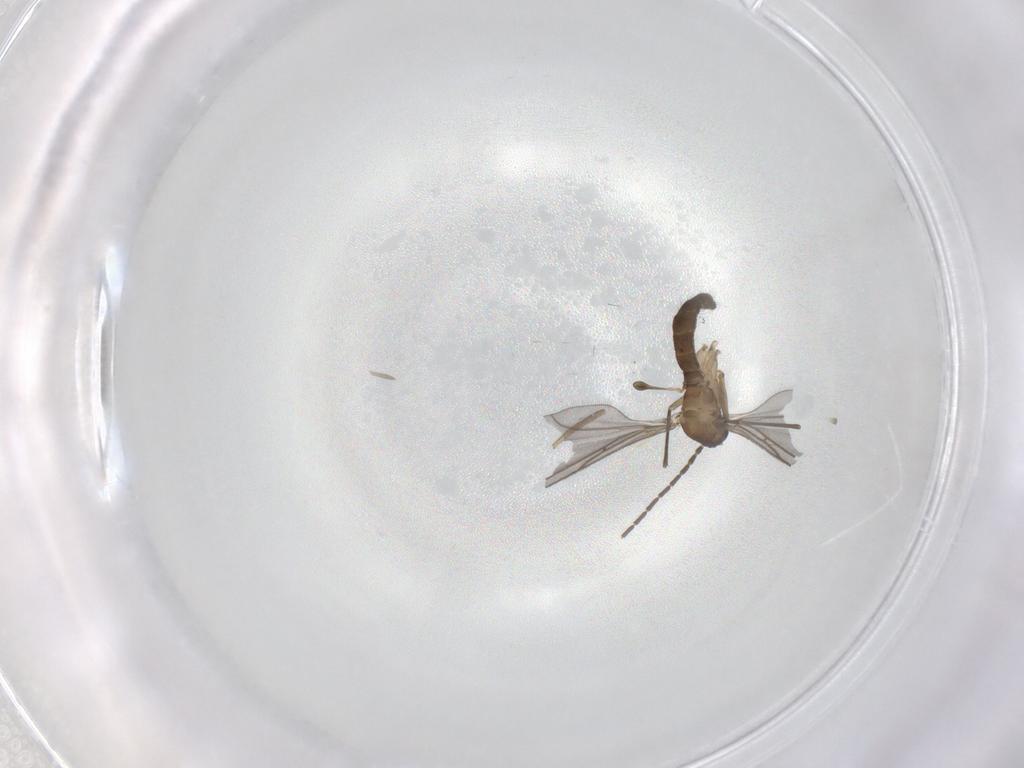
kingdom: Animalia
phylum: Arthropoda
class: Insecta
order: Diptera
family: Sciaridae
